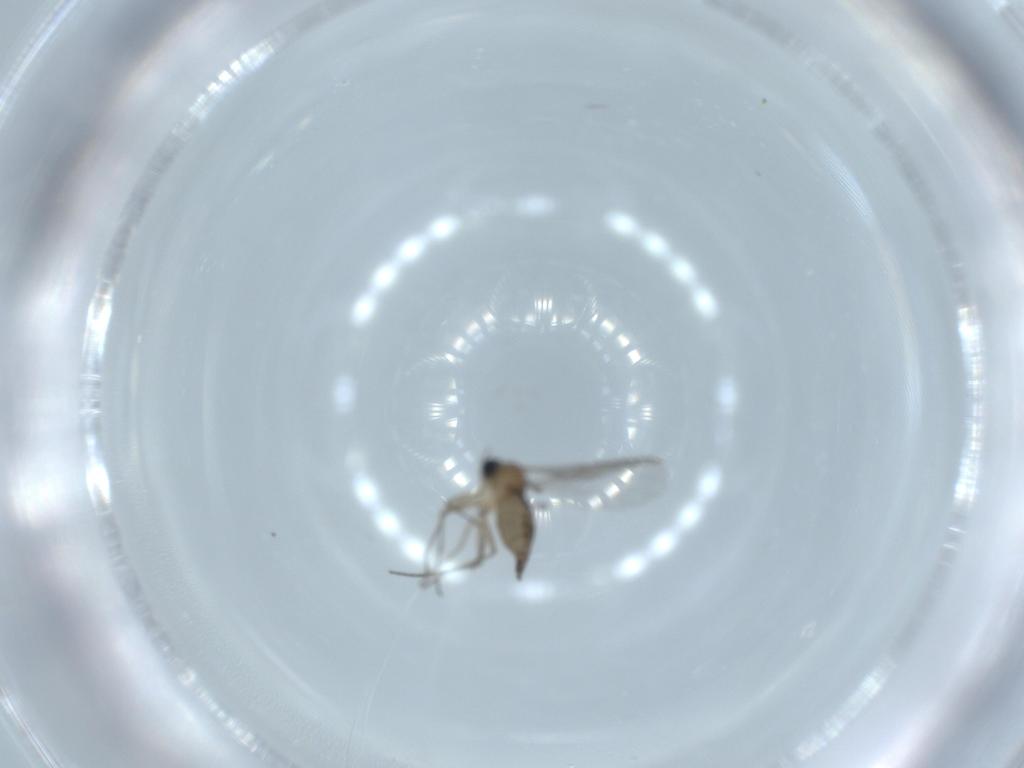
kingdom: Animalia
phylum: Arthropoda
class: Insecta
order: Diptera
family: Sciaridae
